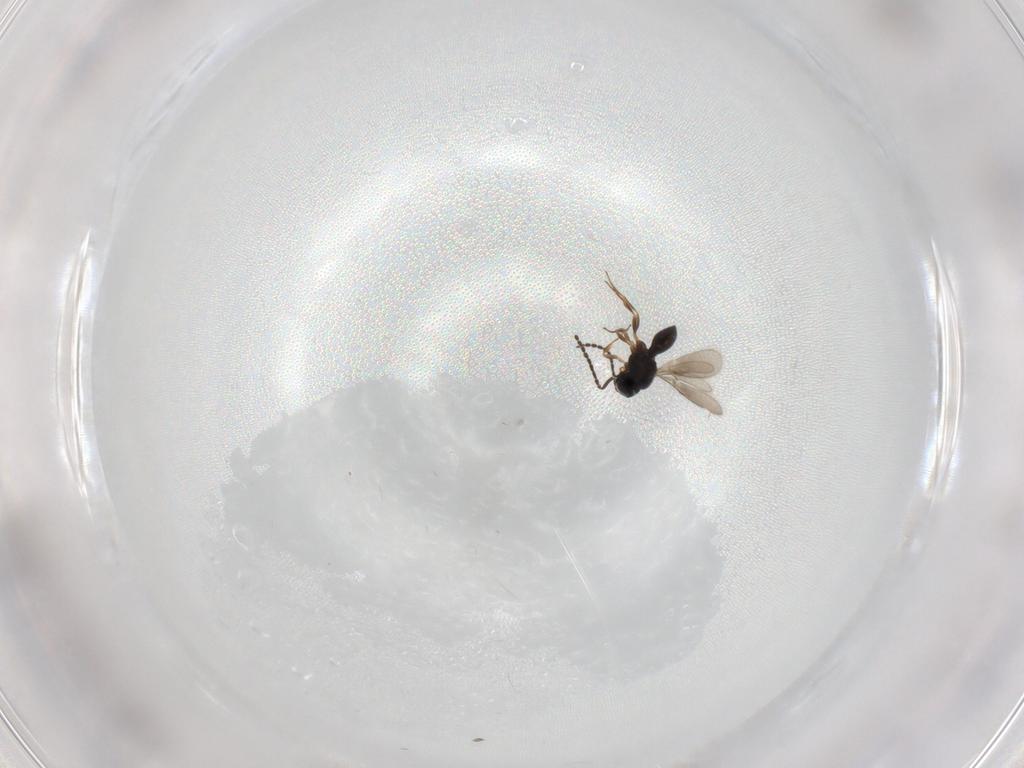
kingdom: Animalia
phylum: Arthropoda
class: Insecta
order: Hymenoptera
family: Scelionidae
